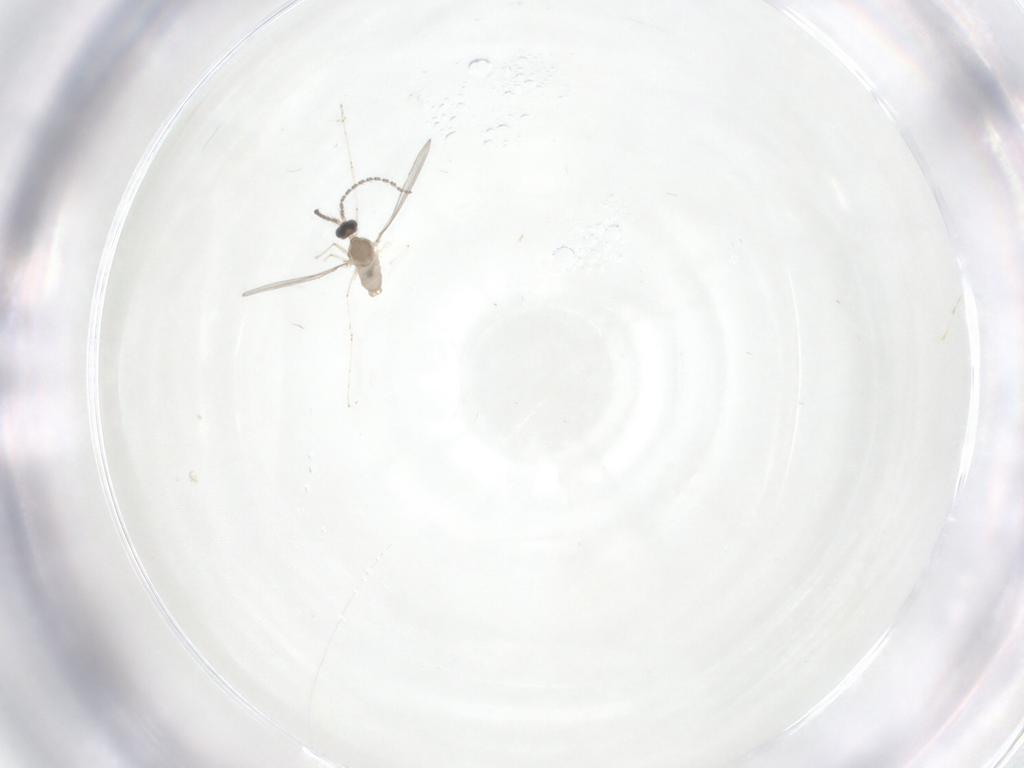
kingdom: Animalia
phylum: Arthropoda
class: Insecta
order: Diptera
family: Cecidomyiidae
